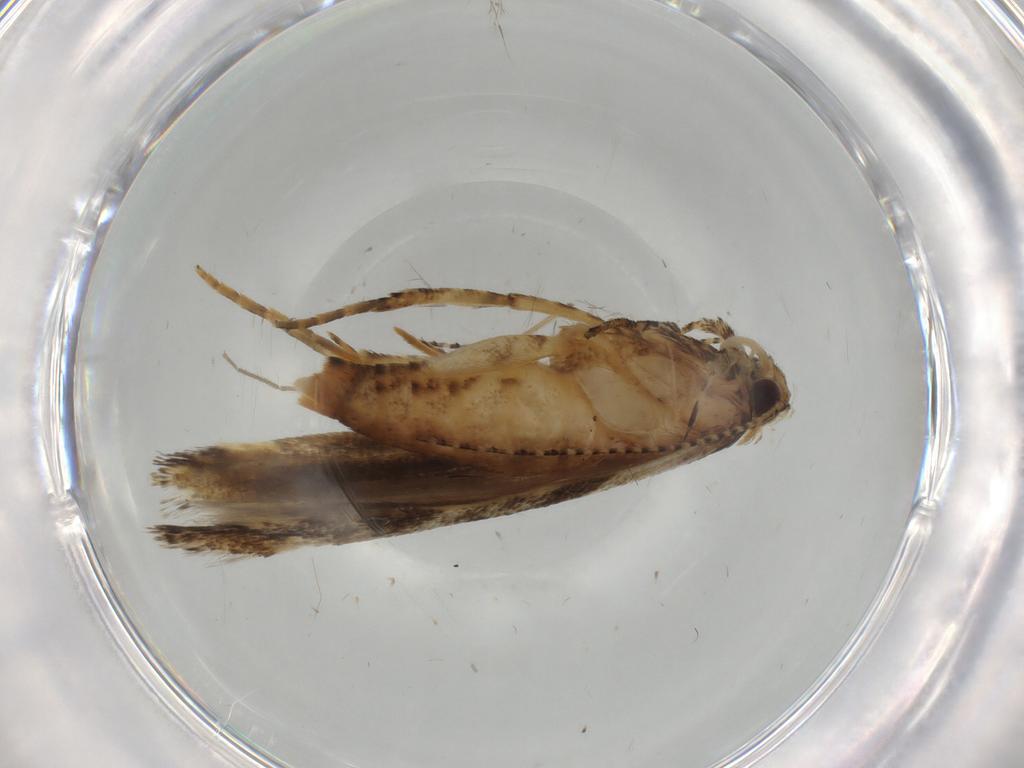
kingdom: Animalia
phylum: Arthropoda
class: Insecta
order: Lepidoptera
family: Gelechiidae
